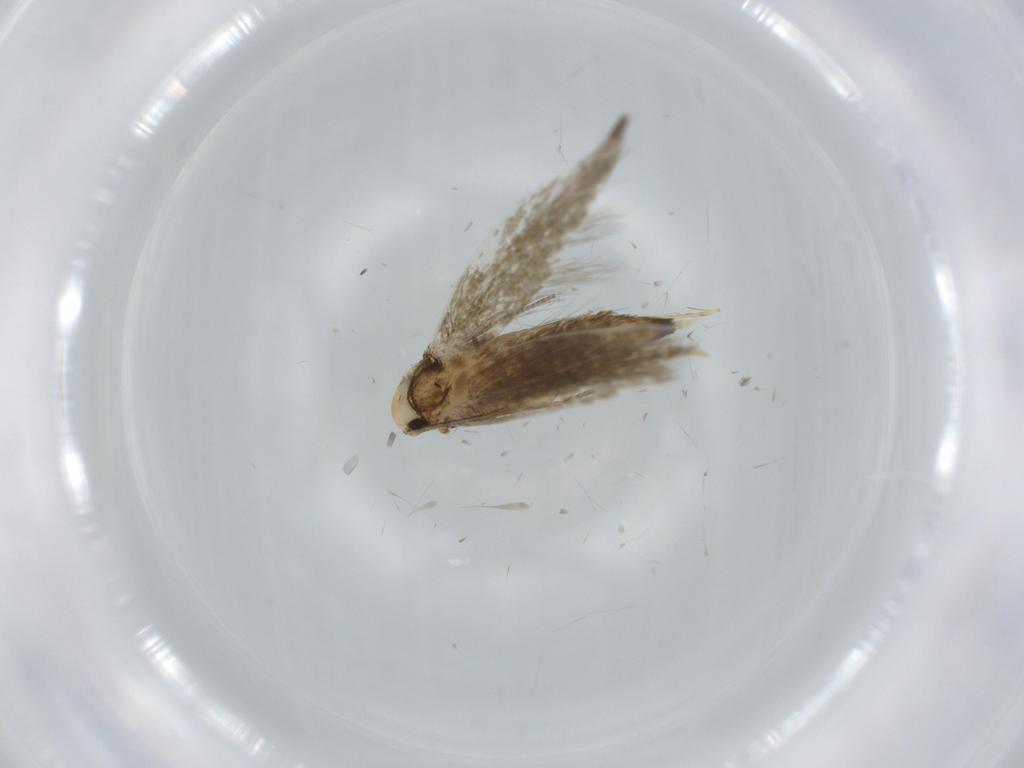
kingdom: Animalia
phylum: Arthropoda
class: Insecta
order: Lepidoptera
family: Tineidae
